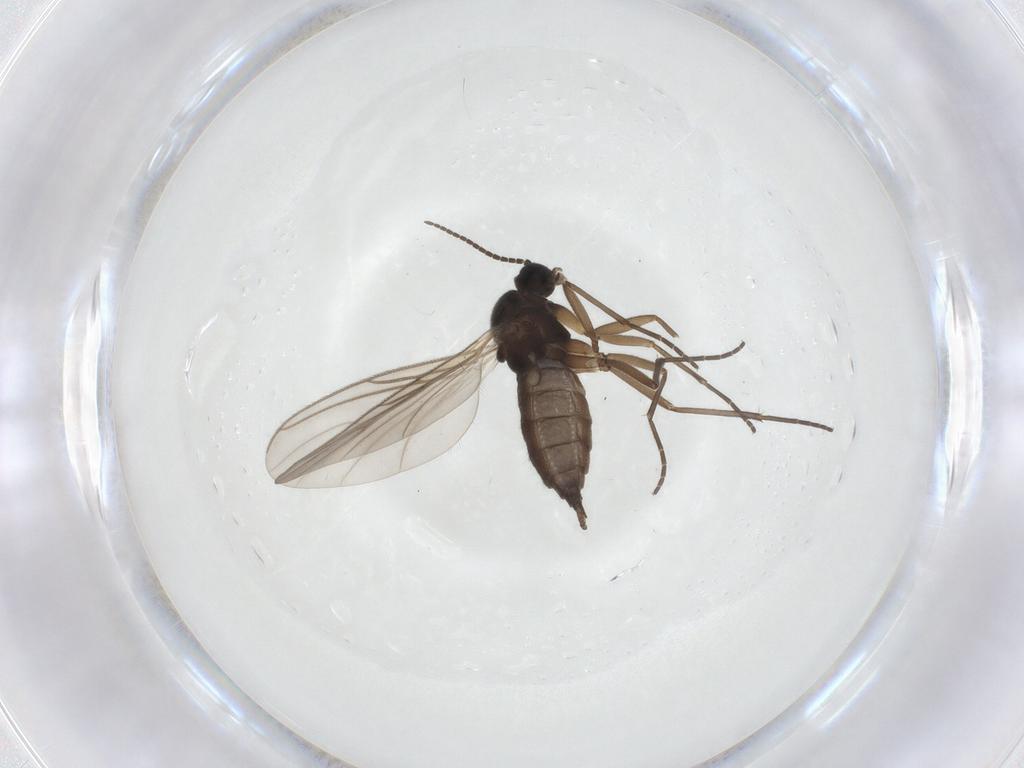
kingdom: Animalia
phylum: Arthropoda
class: Insecta
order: Diptera
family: Sciaridae
